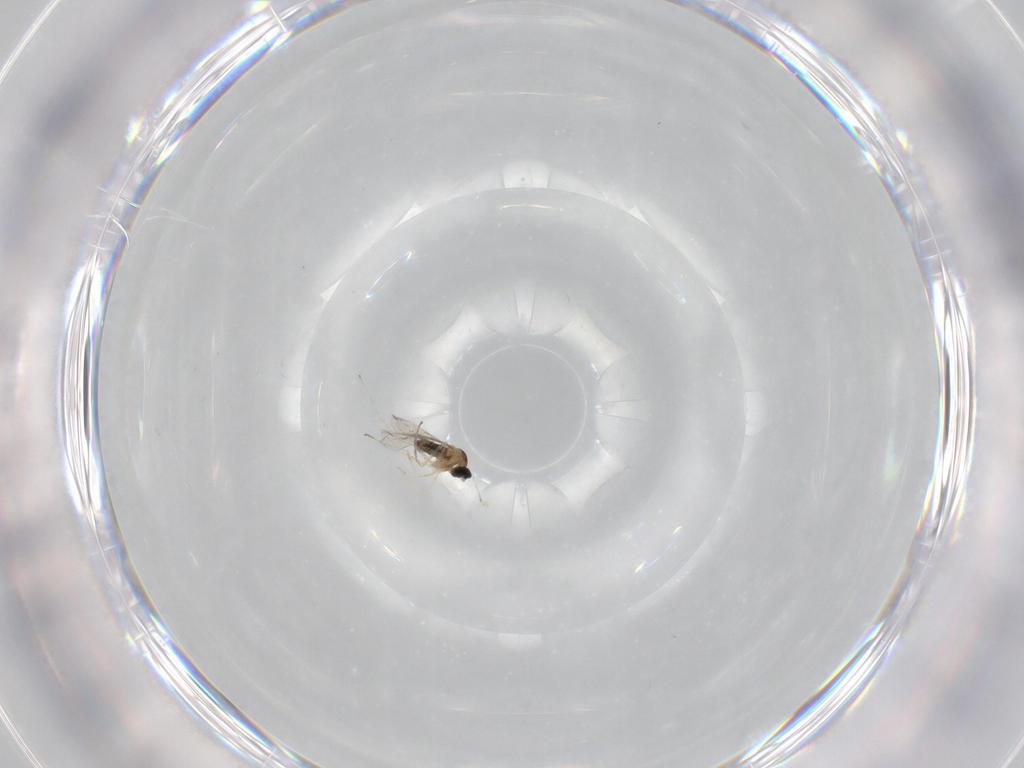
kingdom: Animalia
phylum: Arthropoda
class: Insecta
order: Diptera
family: Cecidomyiidae
